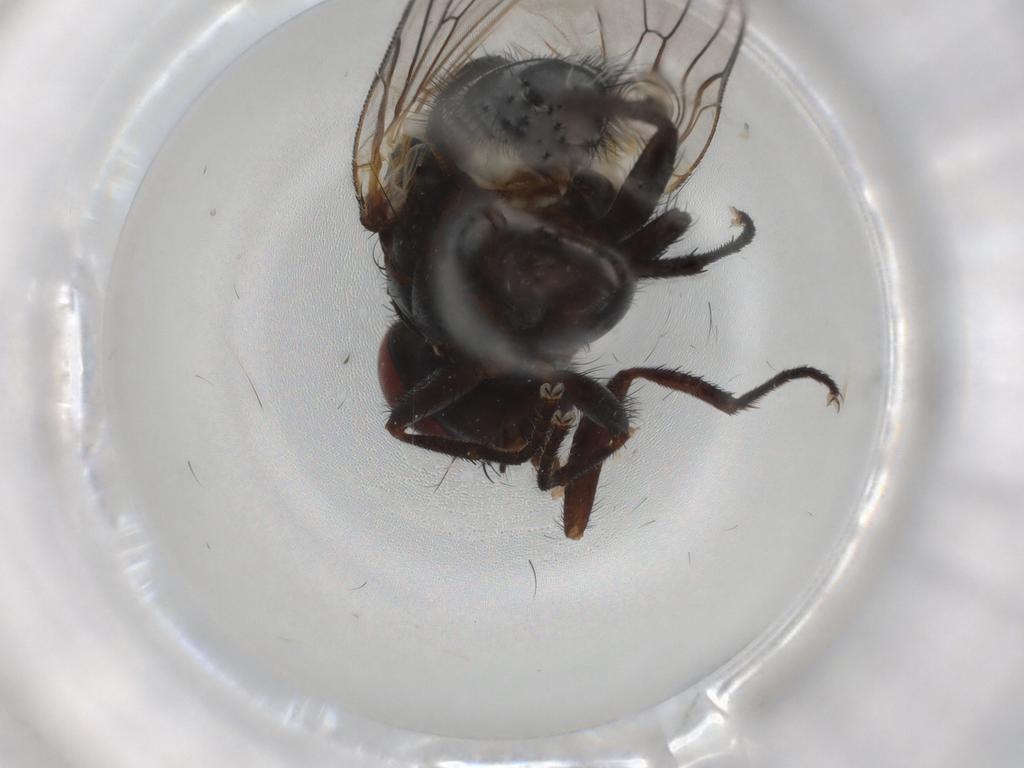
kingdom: Animalia
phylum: Arthropoda
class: Insecta
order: Diptera
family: Anthomyiidae
